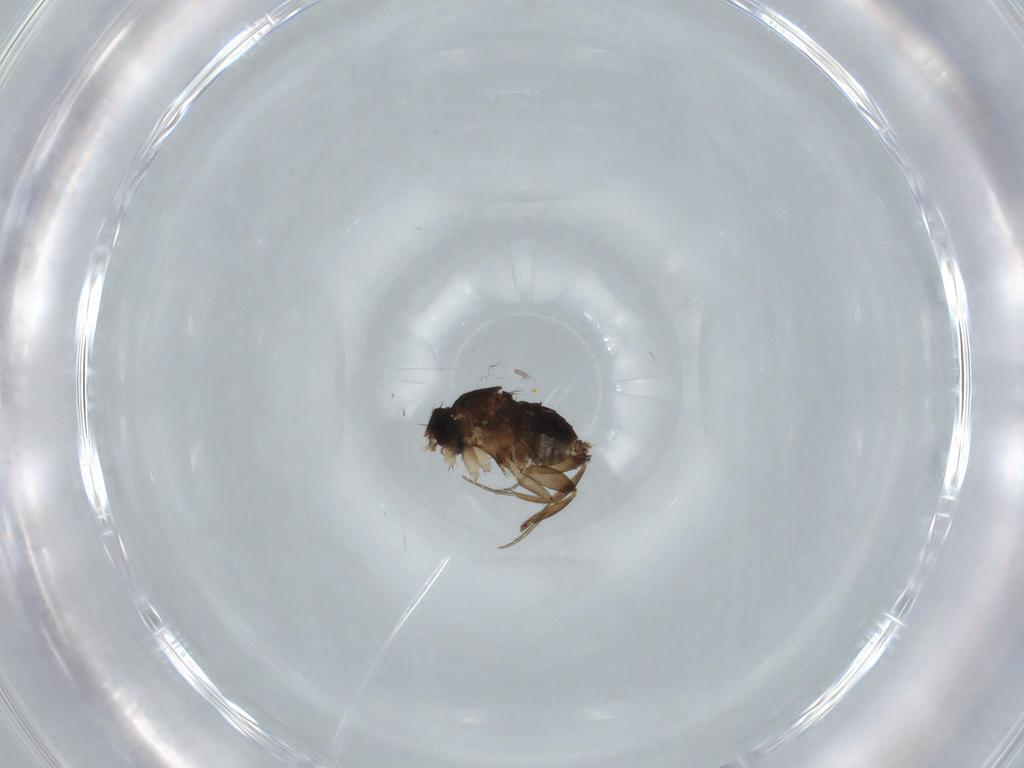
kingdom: Animalia
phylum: Arthropoda
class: Insecta
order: Diptera
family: Phoridae
